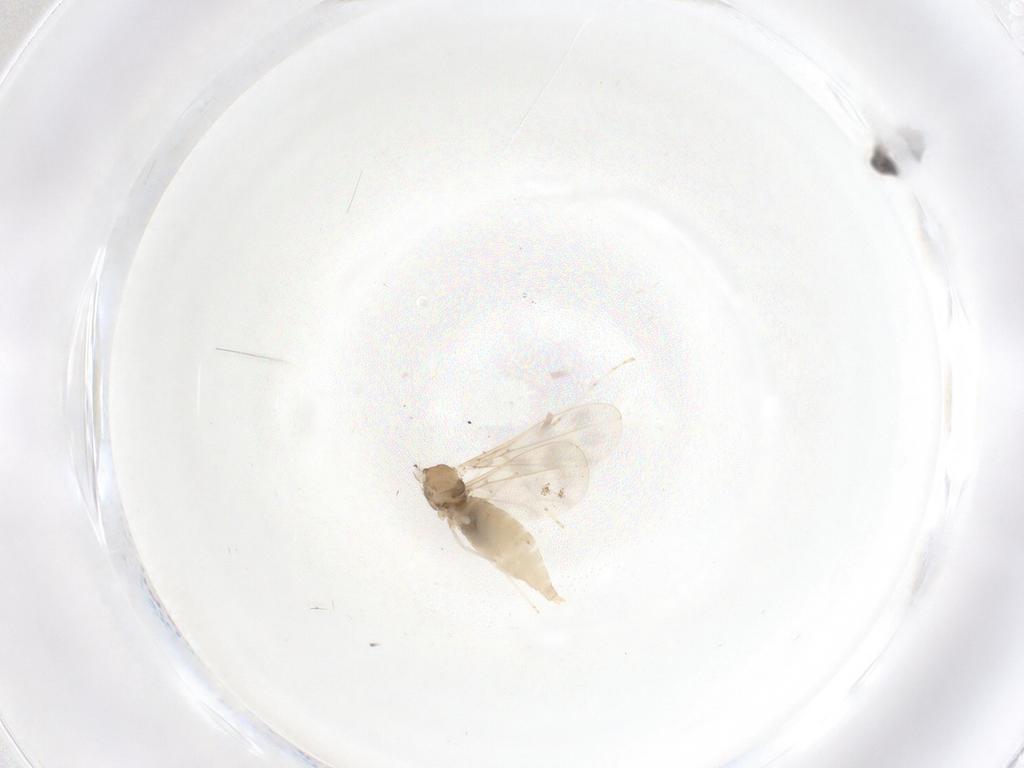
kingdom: Animalia
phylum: Arthropoda
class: Insecta
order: Diptera
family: Cecidomyiidae
